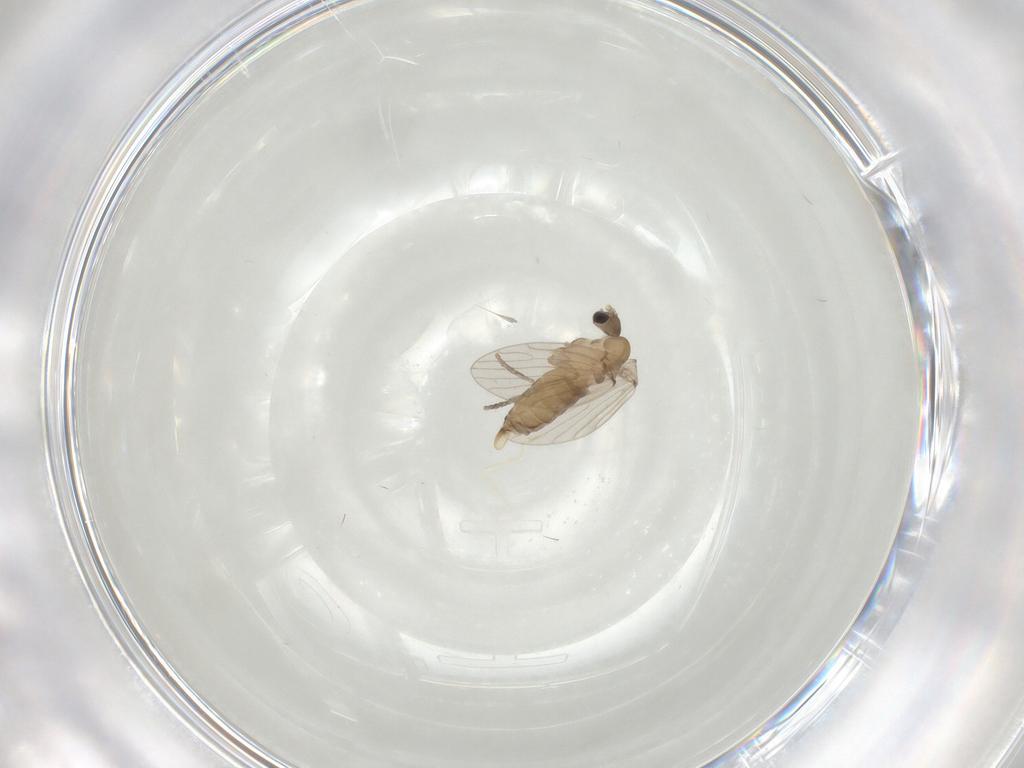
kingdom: Animalia
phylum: Arthropoda
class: Insecta
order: Diptera
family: Psychodidae
